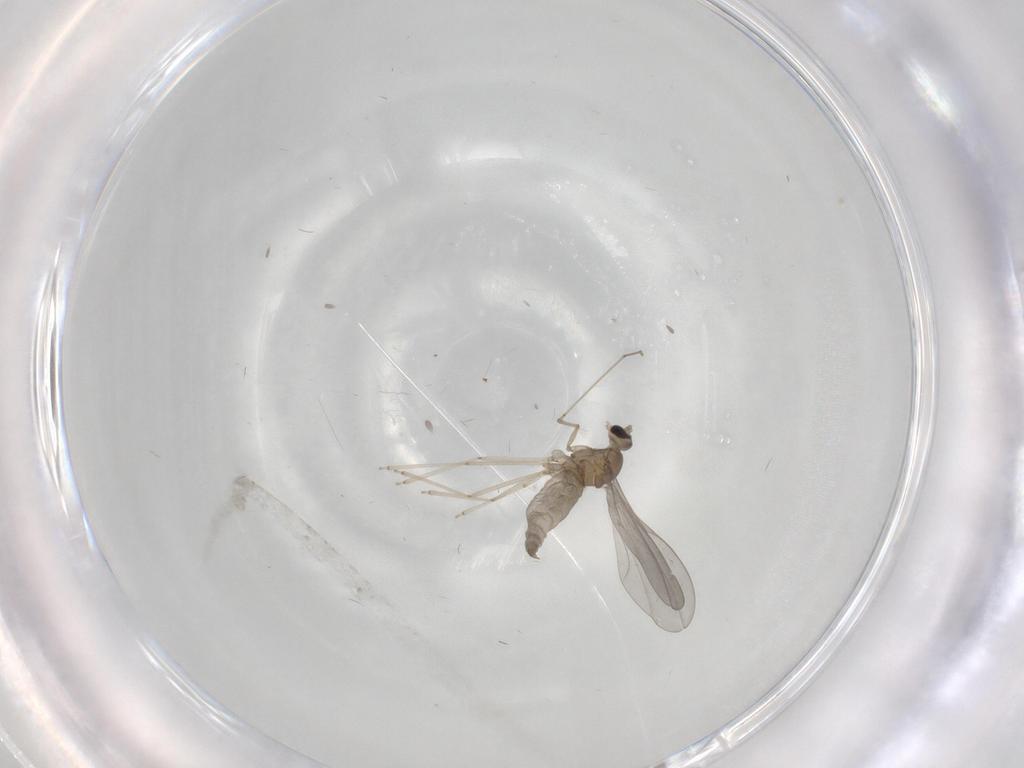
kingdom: Animalia
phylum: Arthropoda
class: Insecta
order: Diptera
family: Cecidomyiidae
